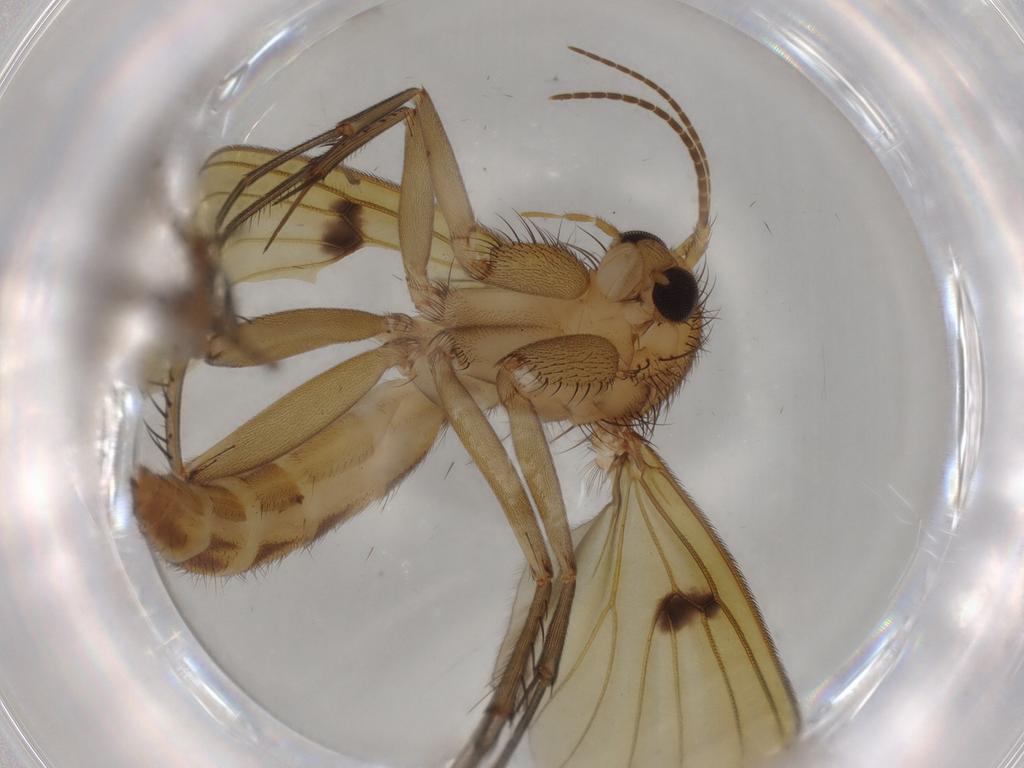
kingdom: Animalia
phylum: Arthropoda
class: Insecta
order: Diptera
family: Mycetophilidae
